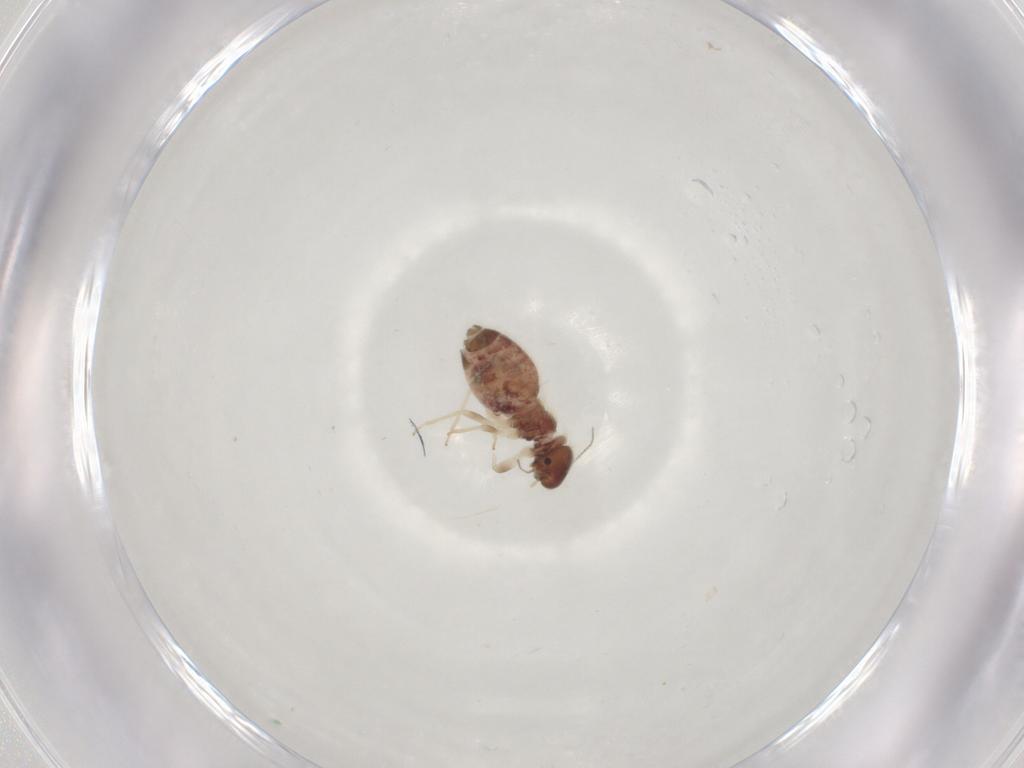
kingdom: Animalia
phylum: Arthropoda
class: Insecta
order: Psocodea
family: Archipsocidae
